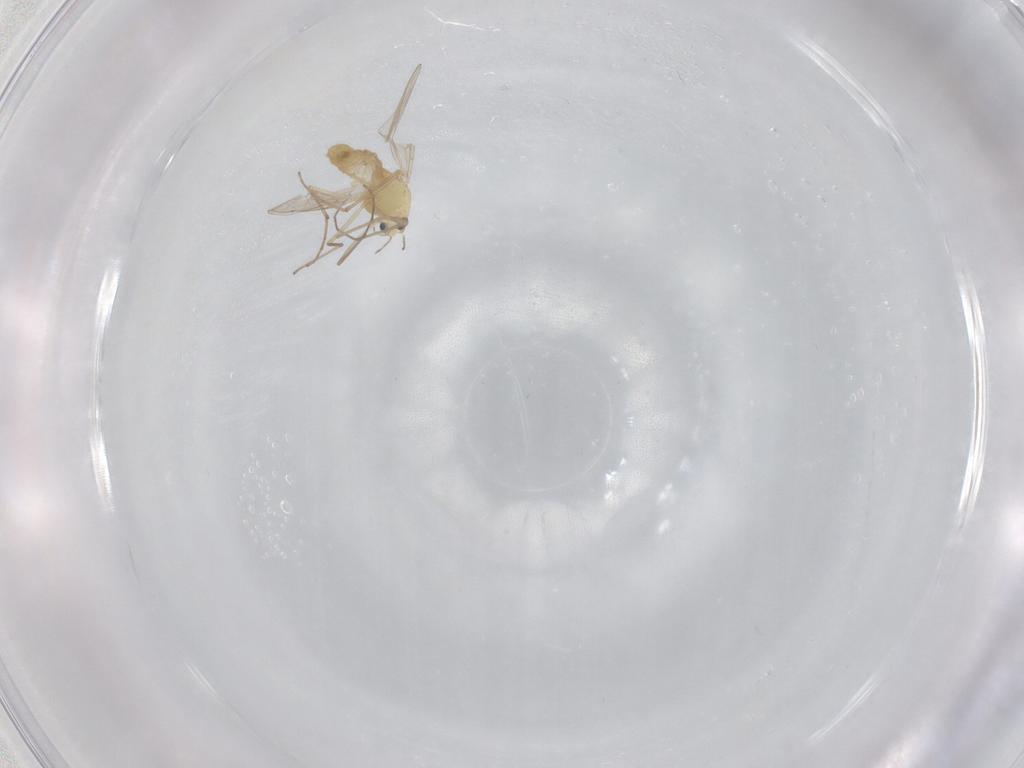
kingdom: Animalia
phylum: Arthropoda
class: Insecta
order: Diptera
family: Chironomidae
